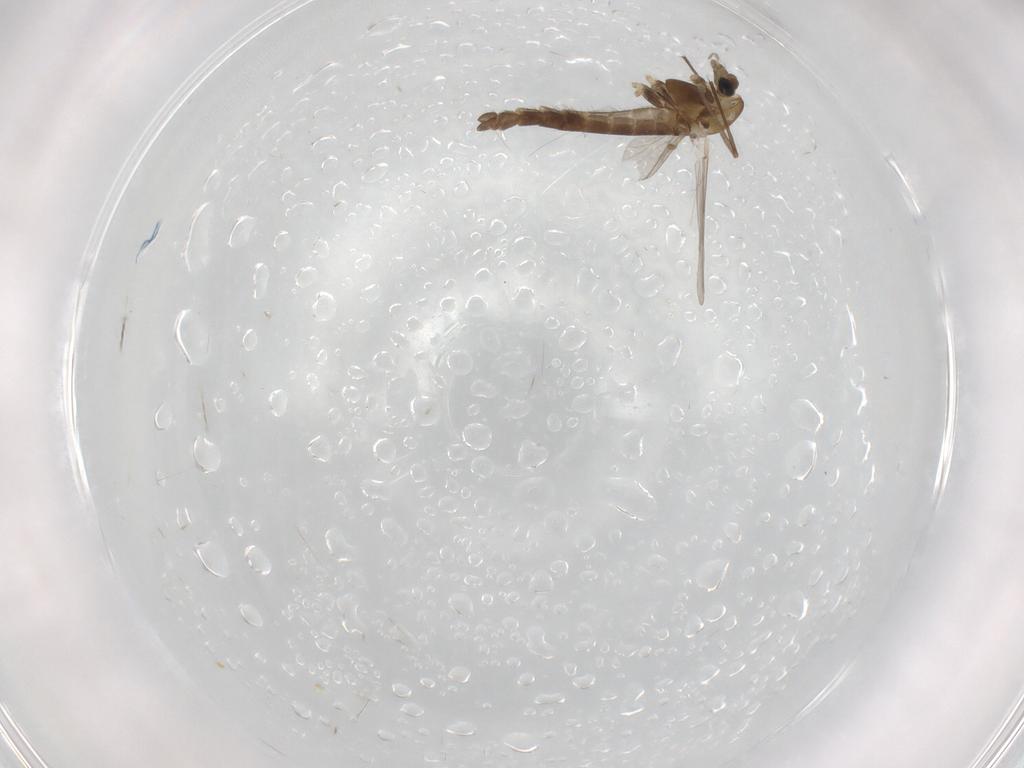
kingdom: Animalia
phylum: Arthropoda
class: Insecta
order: Diptera
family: Chironomidae
